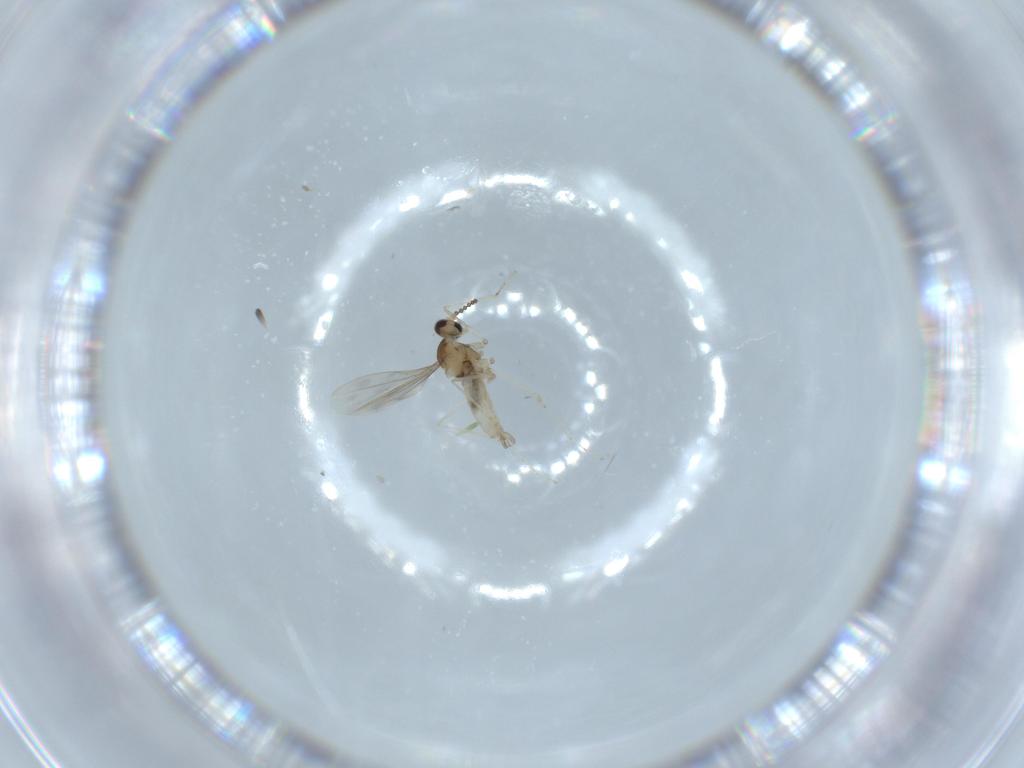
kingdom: Animalia
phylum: Arthropoda
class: Insecta
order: Diptera
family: Cecidomyiidae
